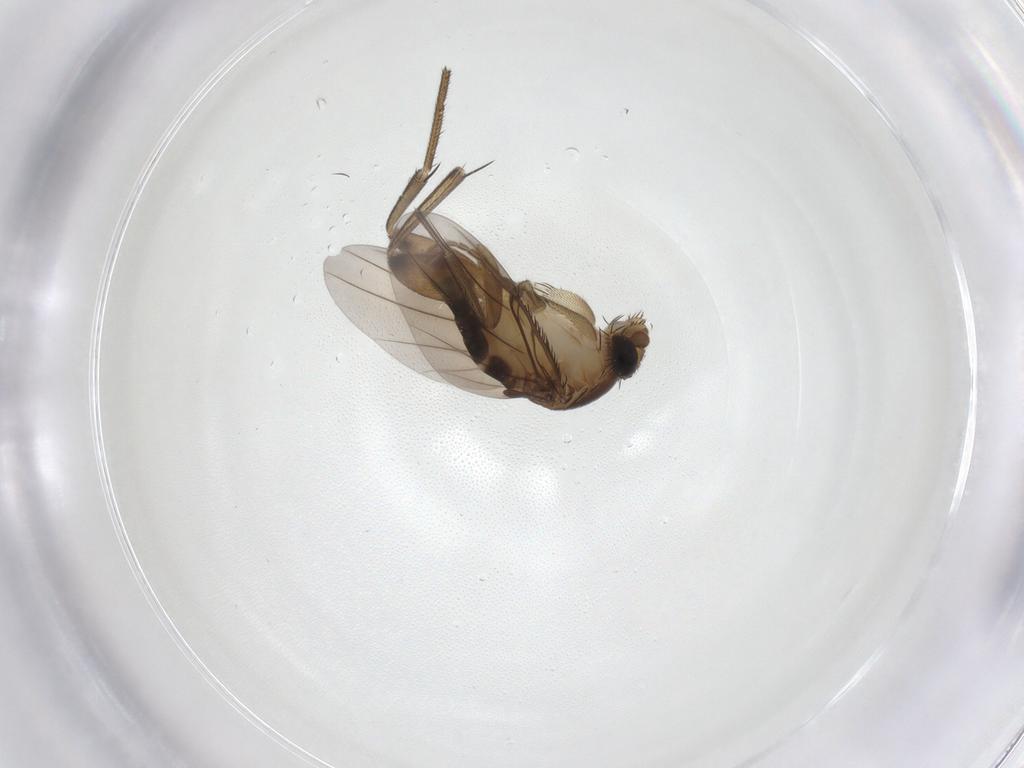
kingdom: Animalia
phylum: Arthropoda
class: Insecta
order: Diptera
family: Phoridae
